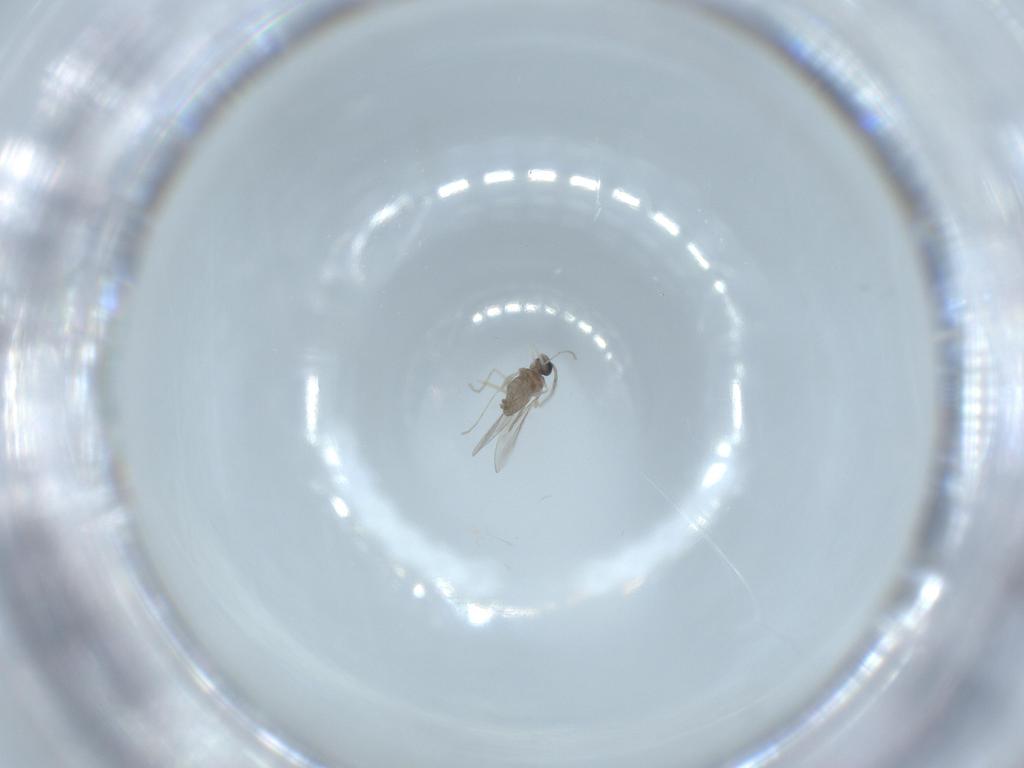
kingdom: Animalia
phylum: Arthropoda
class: Insecta
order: Diptera
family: Cecidomyiidae
